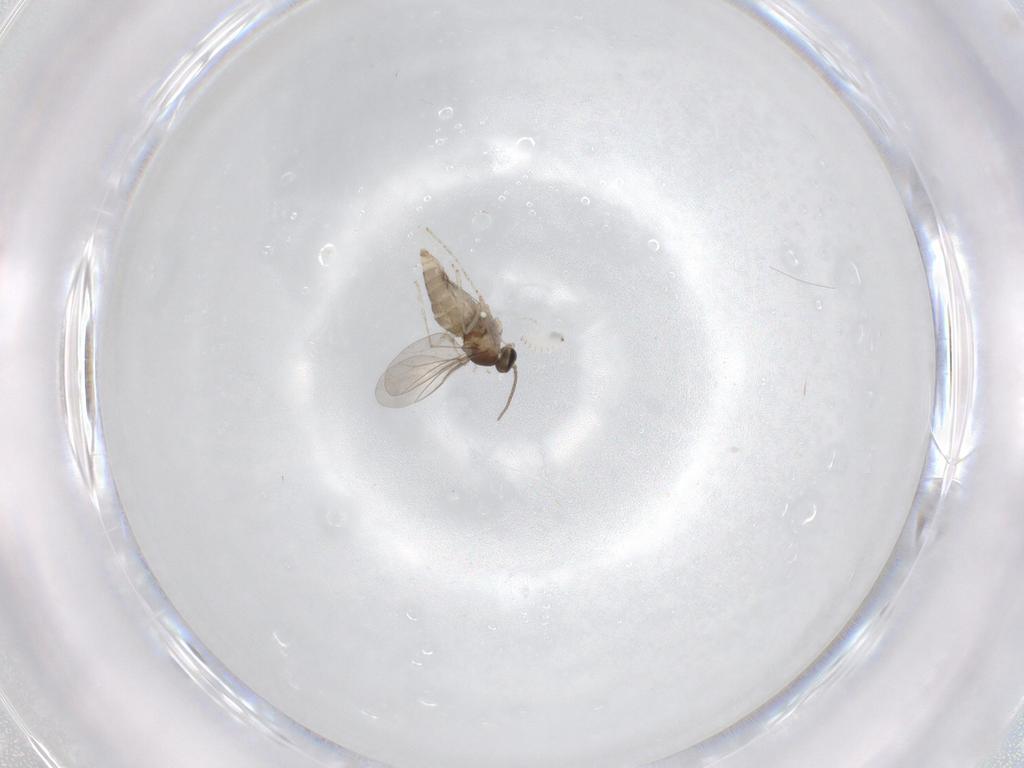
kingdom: Animalia
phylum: Arthropoda
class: Insecta
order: Diptera
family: Cecidomyiidae
